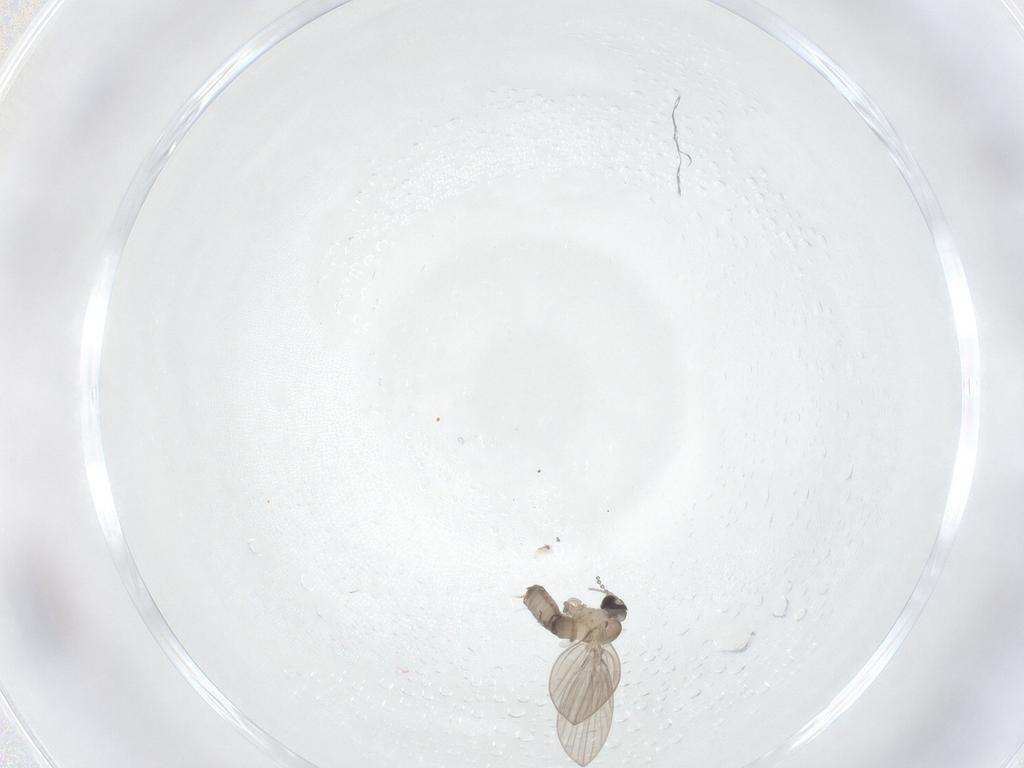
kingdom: Animalia
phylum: Arthropoda
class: Insecta
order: Diptera
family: Psychodidae
